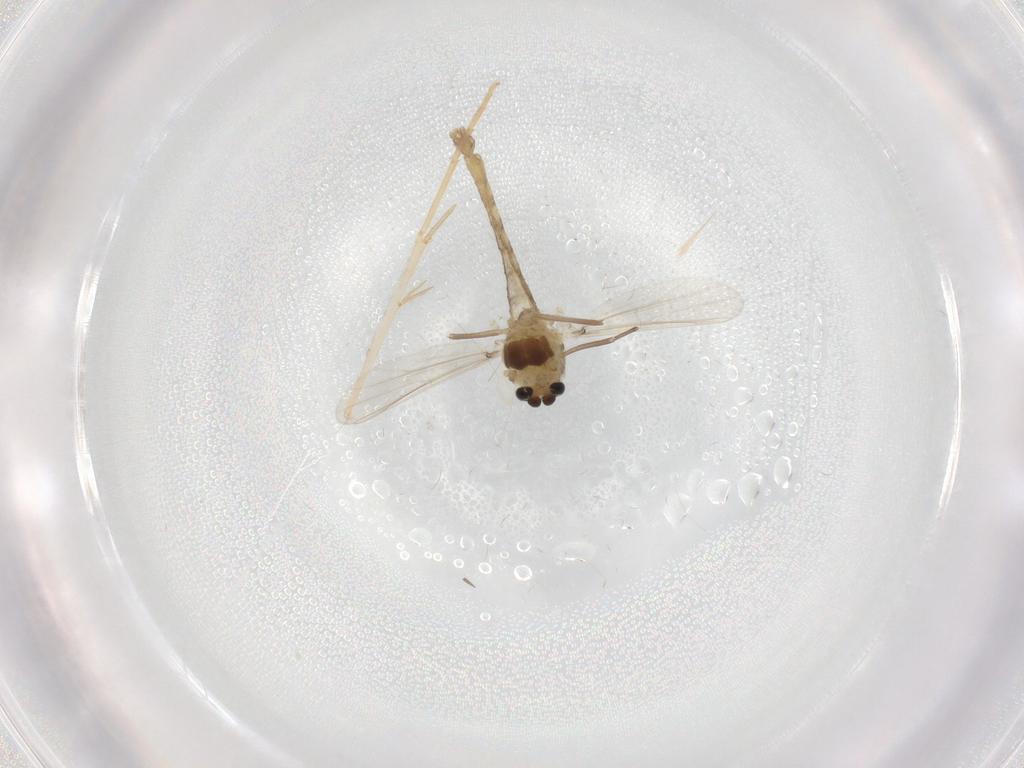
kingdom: Animalia
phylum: Arthropoda
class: Insecta
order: Diptera
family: Chironomidae
